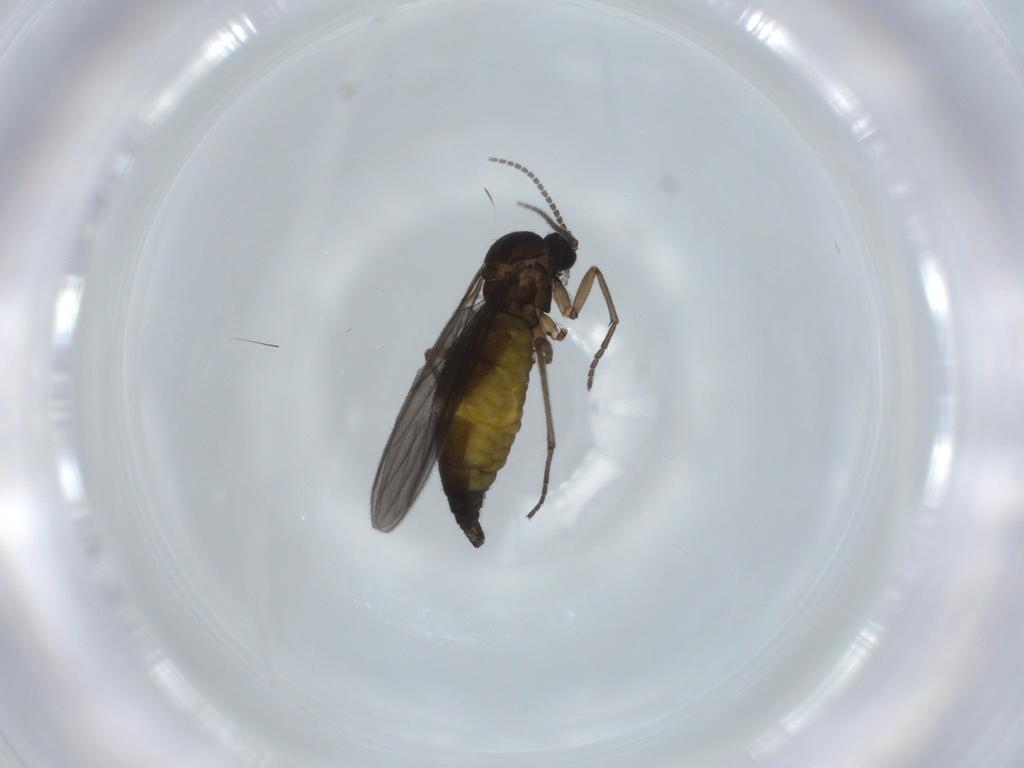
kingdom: Animalia
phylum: Arthropoda
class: Insecta
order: Diptera
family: Sciaridae
